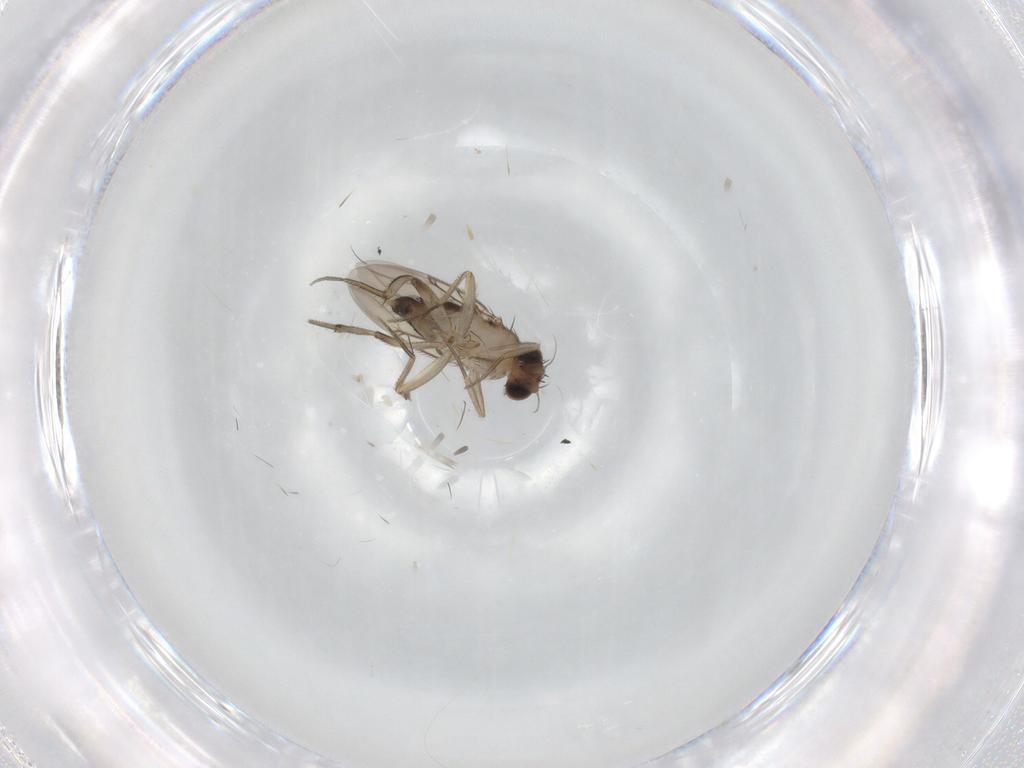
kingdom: Animalia
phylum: Arthropoda
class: Insecta
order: Diptera
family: Phoridae
